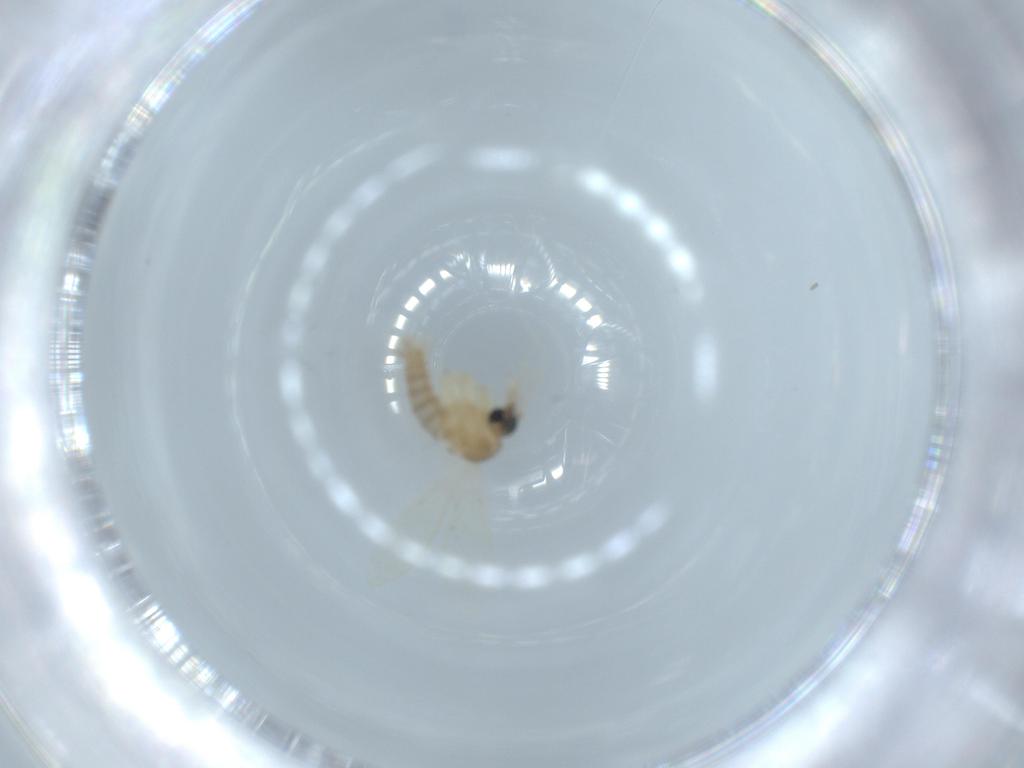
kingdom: Animalia
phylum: Arthropoda
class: Insecta
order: Diptera
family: Psychodidae
